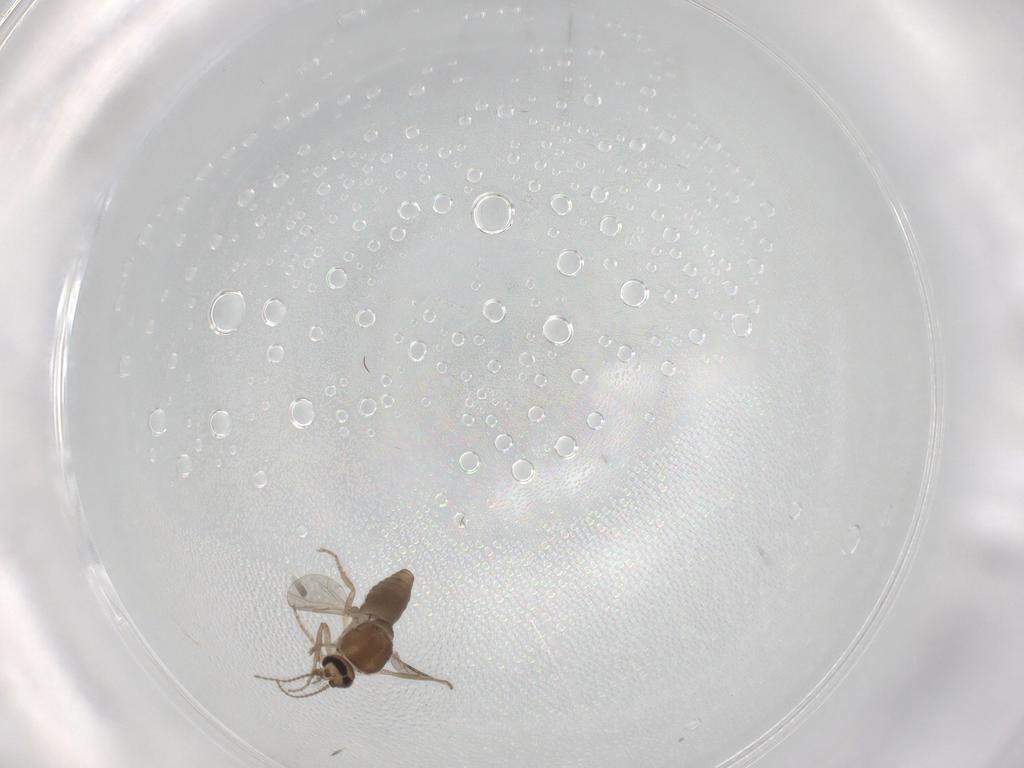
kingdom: Animalia
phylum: Arthropoda
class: Insecta
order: Diptera
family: Ceratopogonidae
